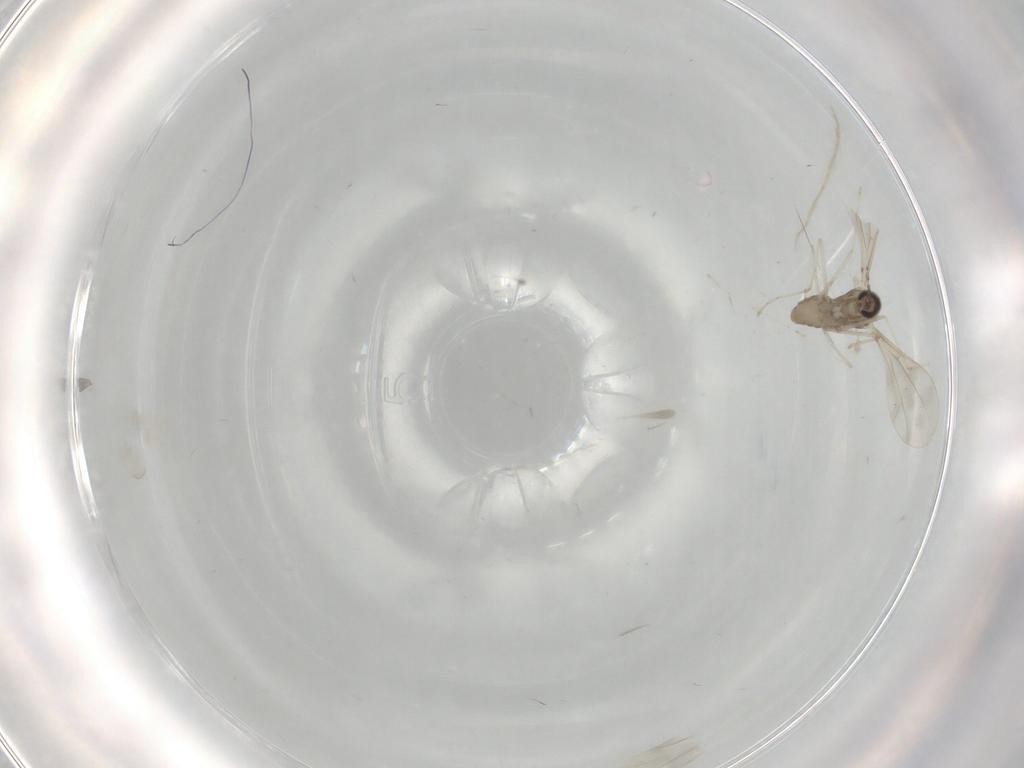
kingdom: Animalia
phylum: Arthropoda
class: Insecta
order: Diptera
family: Cecidomyiidae
